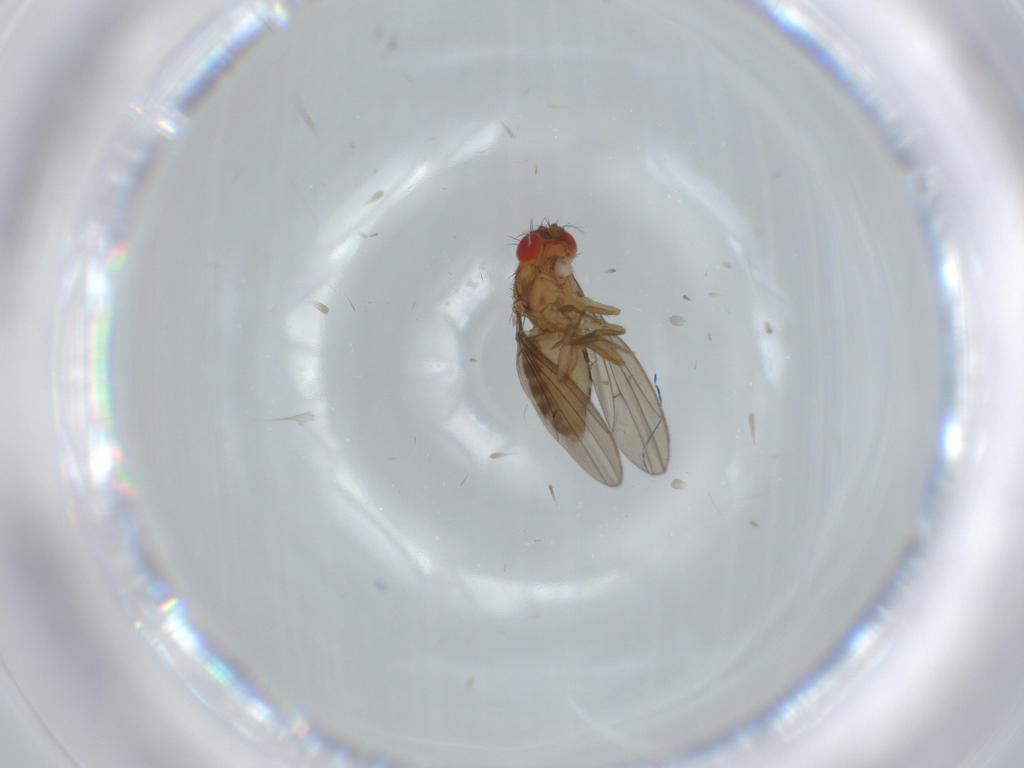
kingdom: Animalia
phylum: Arthropoda
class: Insecta
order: Diptera
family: Drosophilidae
